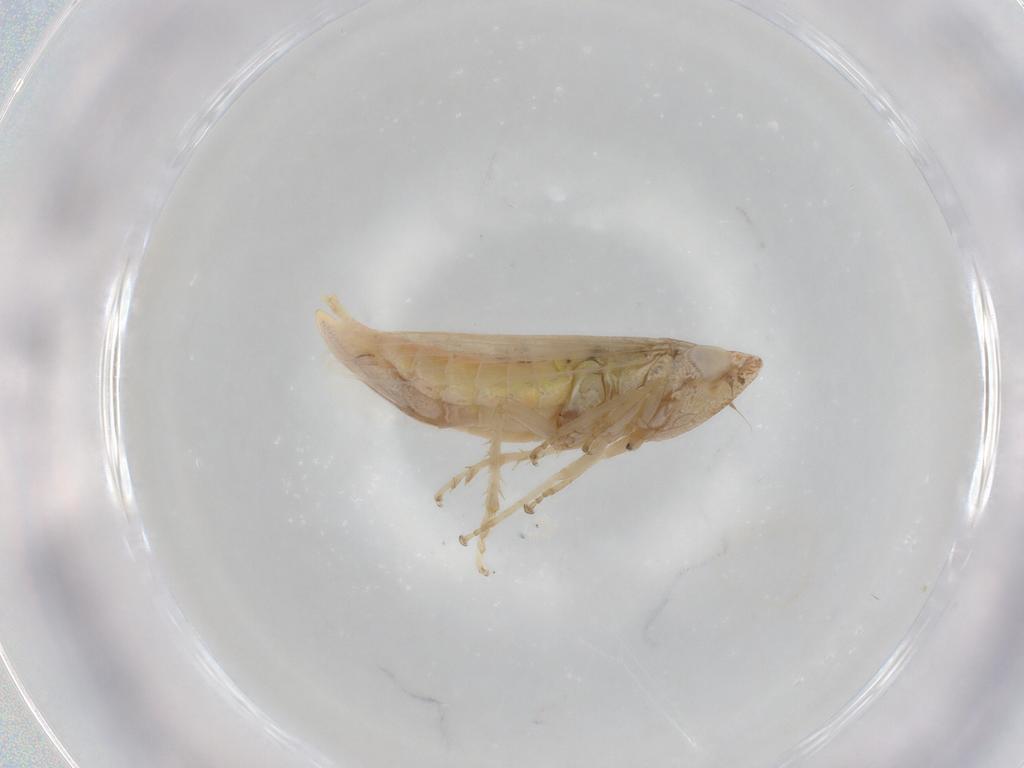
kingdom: Animalia
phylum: Arthropoda
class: Insecta
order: Hemiptera
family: Cicadellidae
